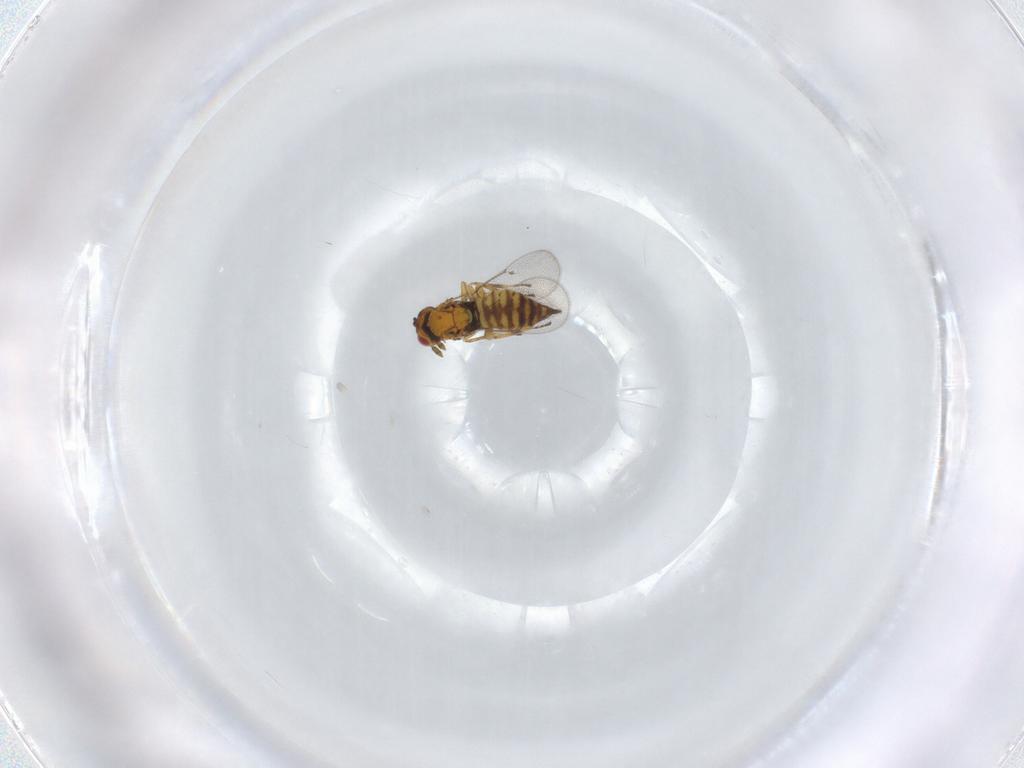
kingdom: Animalia
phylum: Arthropoda
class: Insecta
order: Hymenoptera
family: Eulophidae
